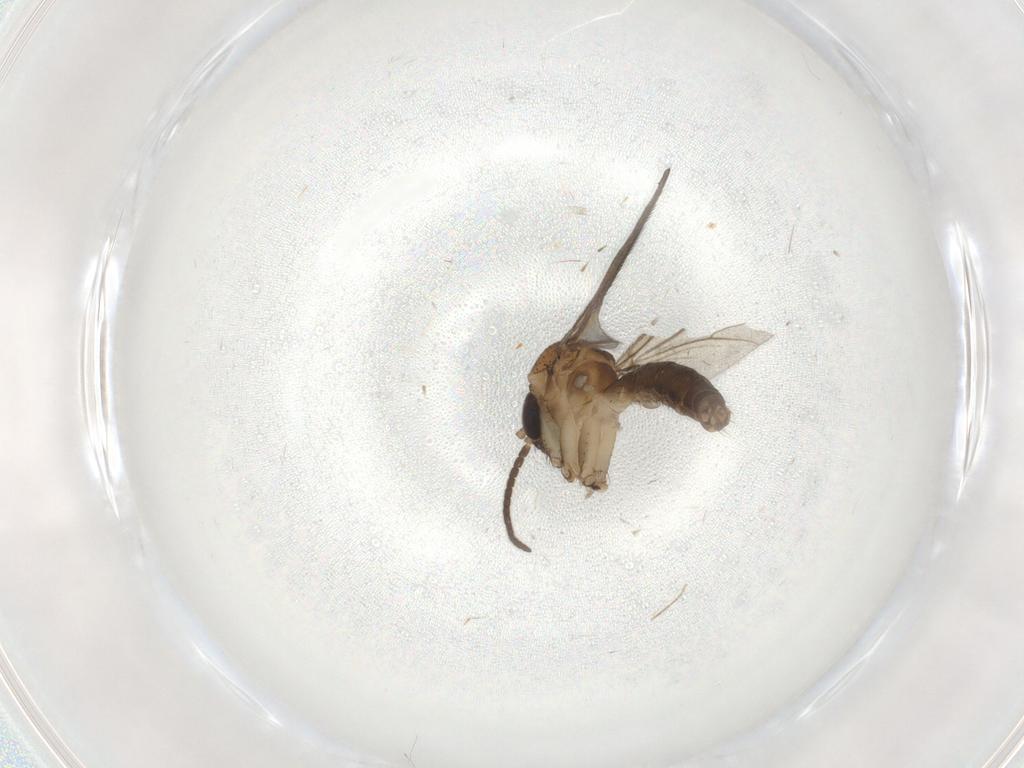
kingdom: Animalia
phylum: Arthropoda
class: Insecta
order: Diptera
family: Mycetophilidae
